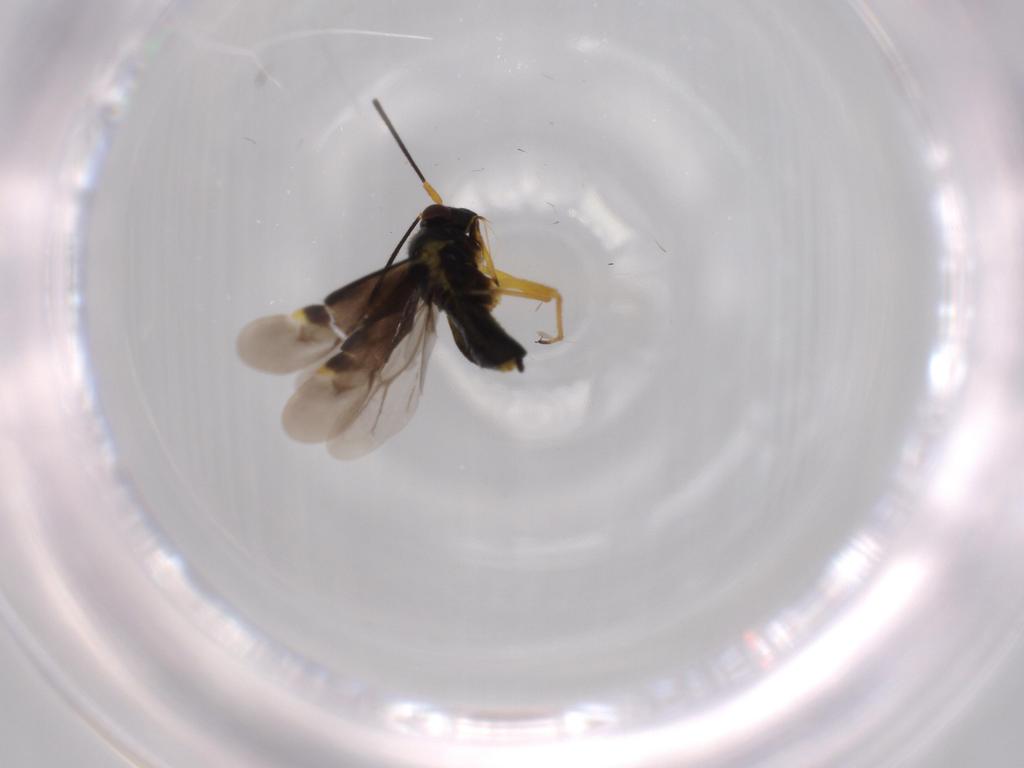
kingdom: Animalia
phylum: Arthropoda
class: Insecta
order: Hemiptera
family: Miridae
